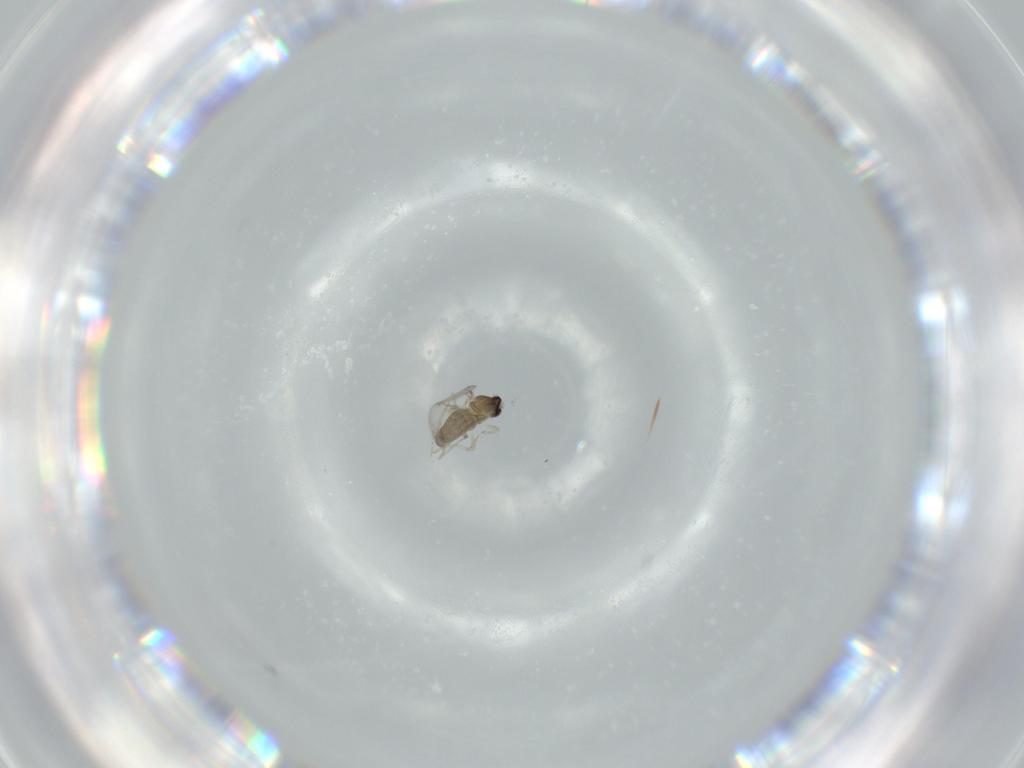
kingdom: Animalia
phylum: Arthropoda
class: Insecta
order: Diptera
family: Cecidomyiidae
